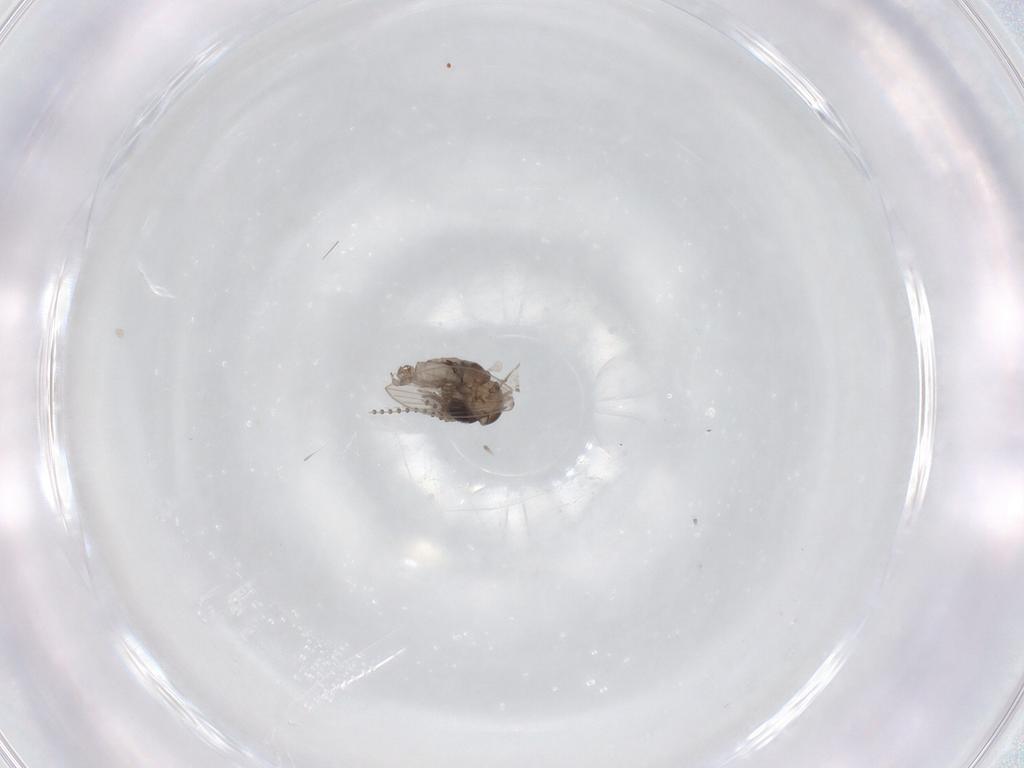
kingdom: Animalia
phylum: Arthropoda
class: Insecta
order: Diptera
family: Psychodidae
